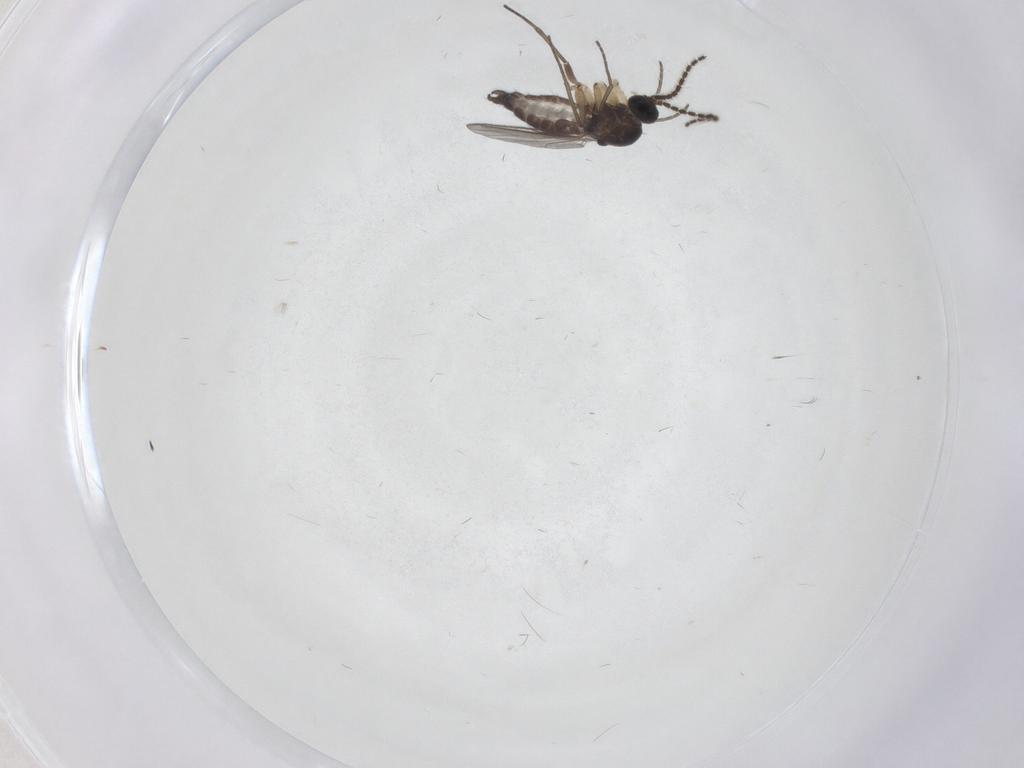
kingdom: Animalia
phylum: Arthropoda
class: Insecta
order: Diptera
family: Sciaridae
